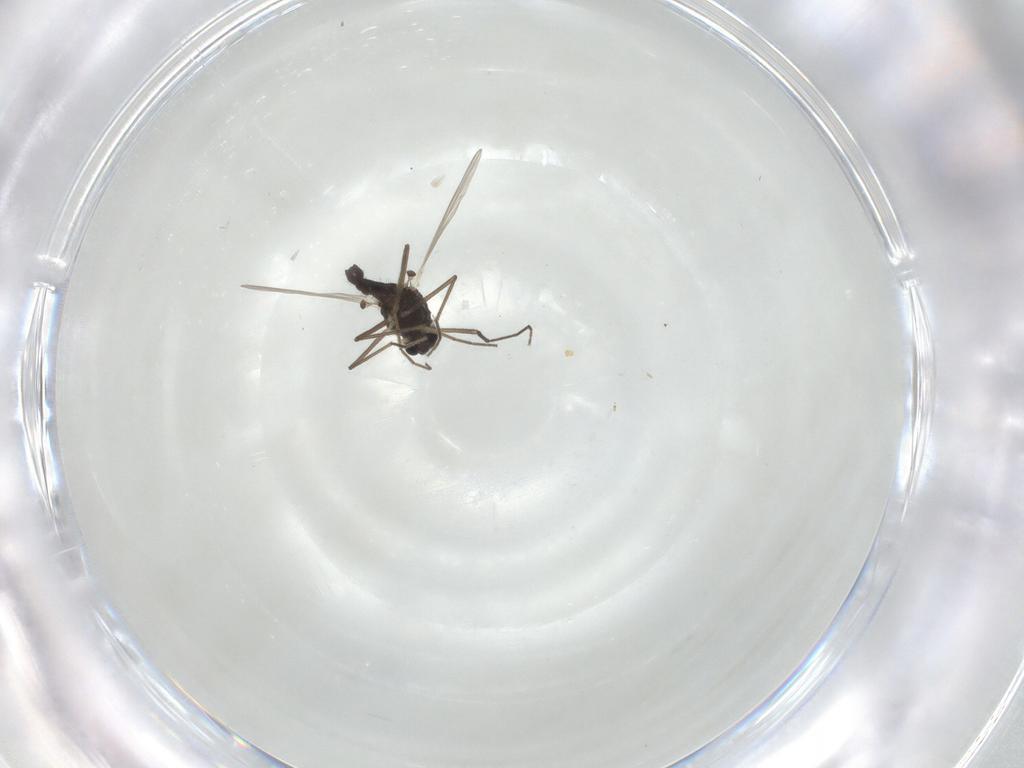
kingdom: Animalia
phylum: Arthropoda
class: Insecta
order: Diptera
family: Chironomidae
